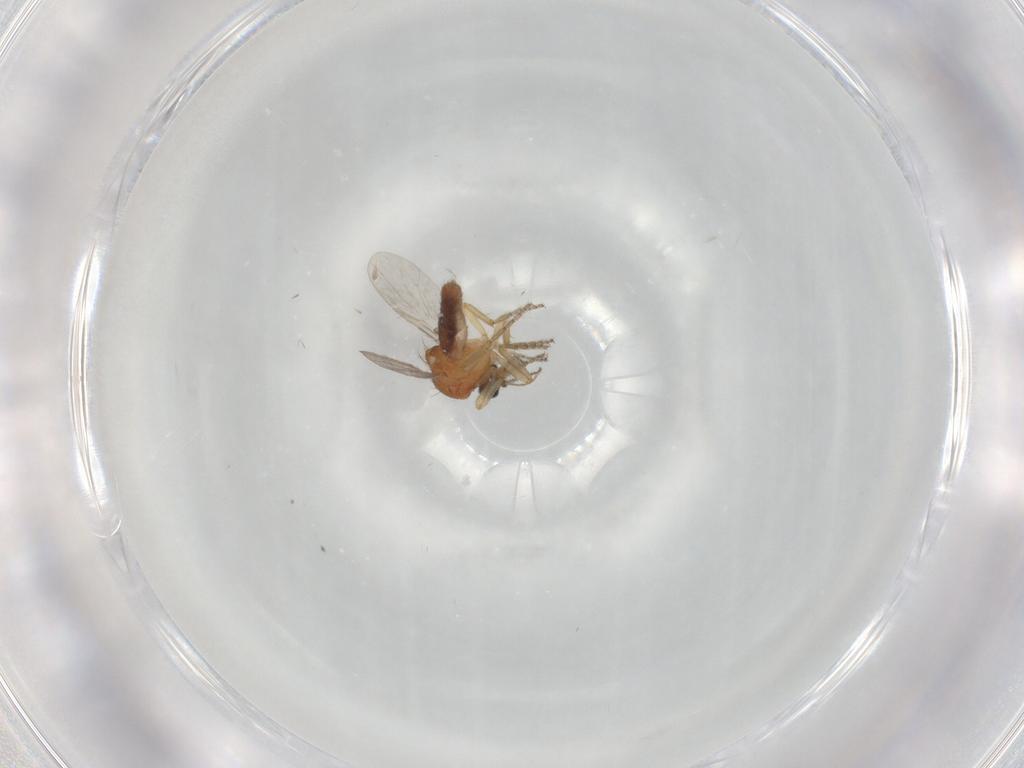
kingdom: Animalia
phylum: Arthropoda
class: Insecta
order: Diptera
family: Ceratopogonidae
